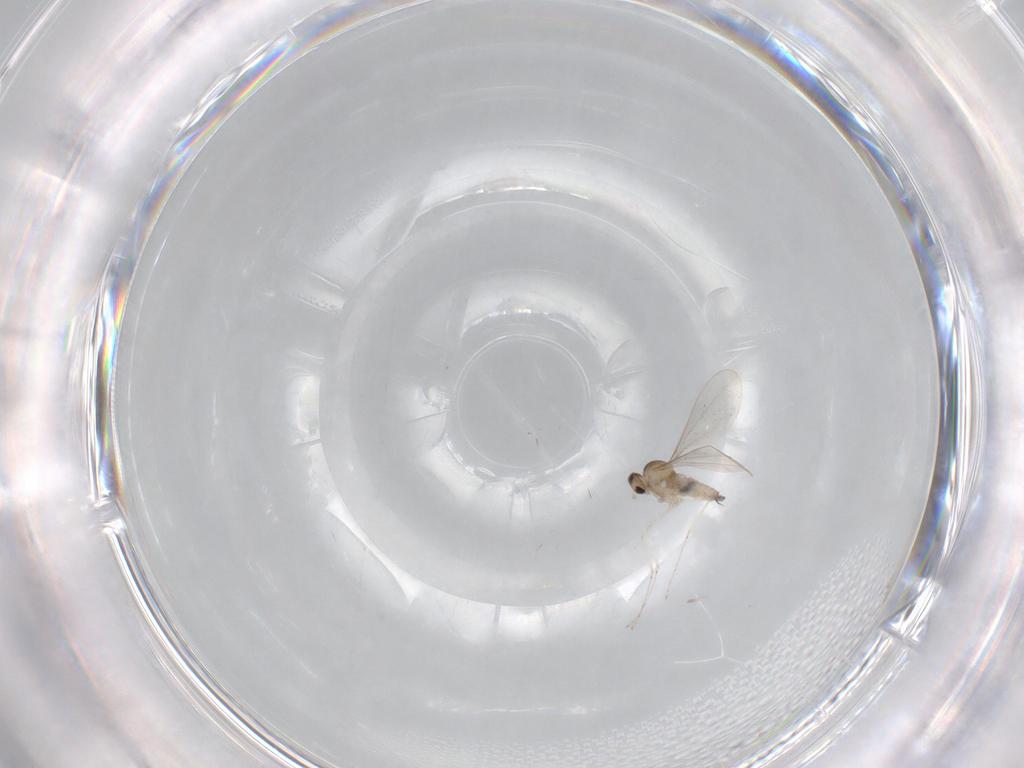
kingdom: Animalia
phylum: Arthropoda
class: Insecta
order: Diptera
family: Cecidomyiidae
